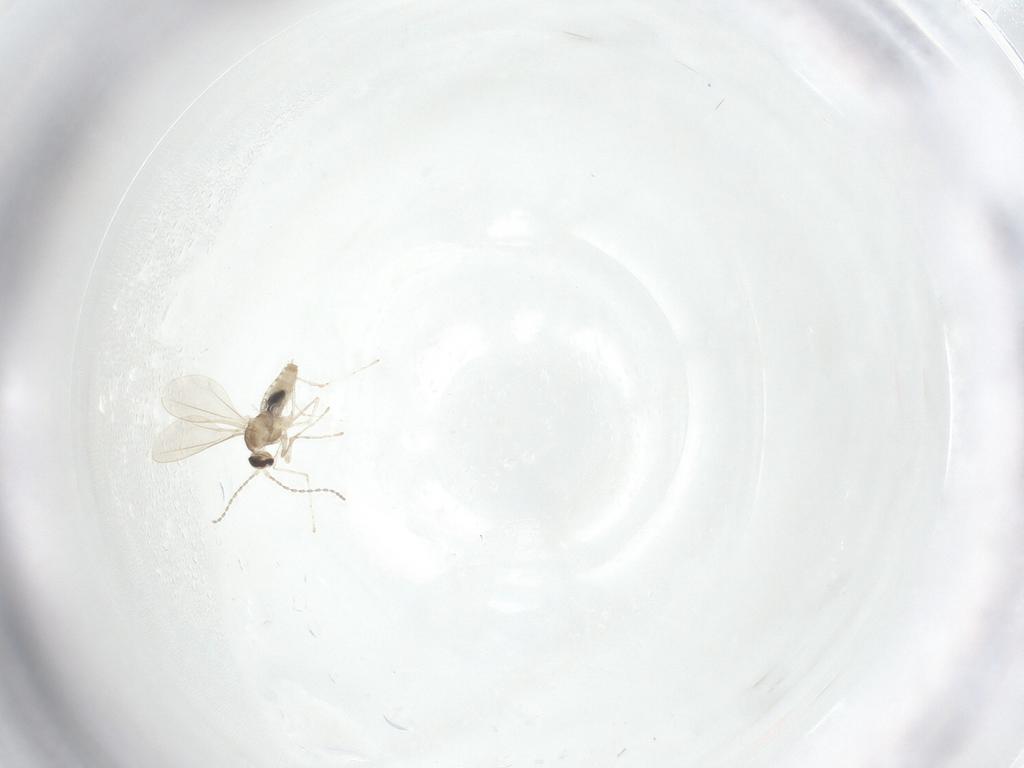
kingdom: Animalia
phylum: Arthropoda
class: Insecta
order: Diptera
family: Cecidomyiidae
